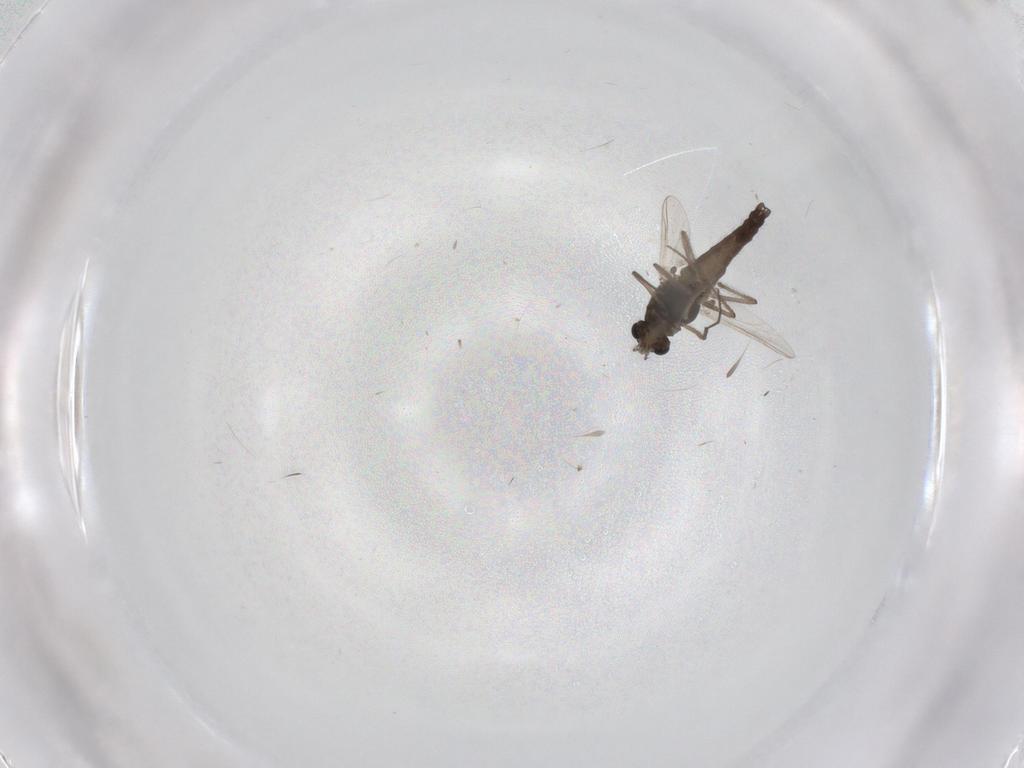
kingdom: Animalia
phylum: Arthropoda
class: Insecta
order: Diptera
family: Chironomidae
